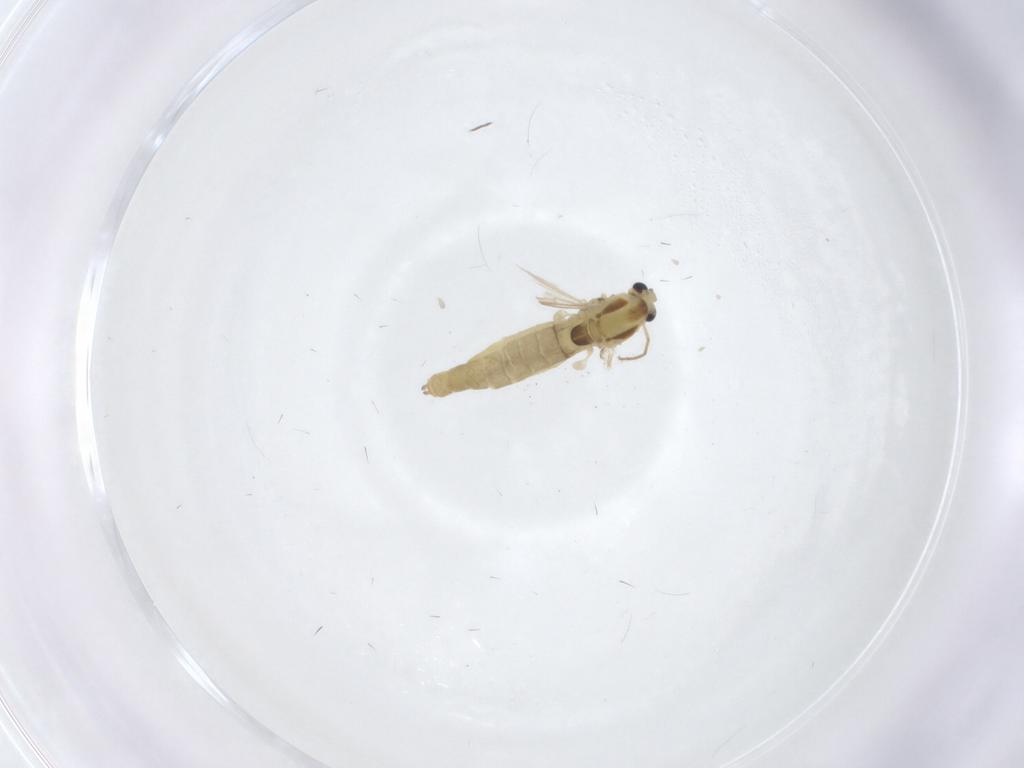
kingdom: Animalia
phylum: Arthropoda
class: Insecta
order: Diptera
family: Chironomidae
